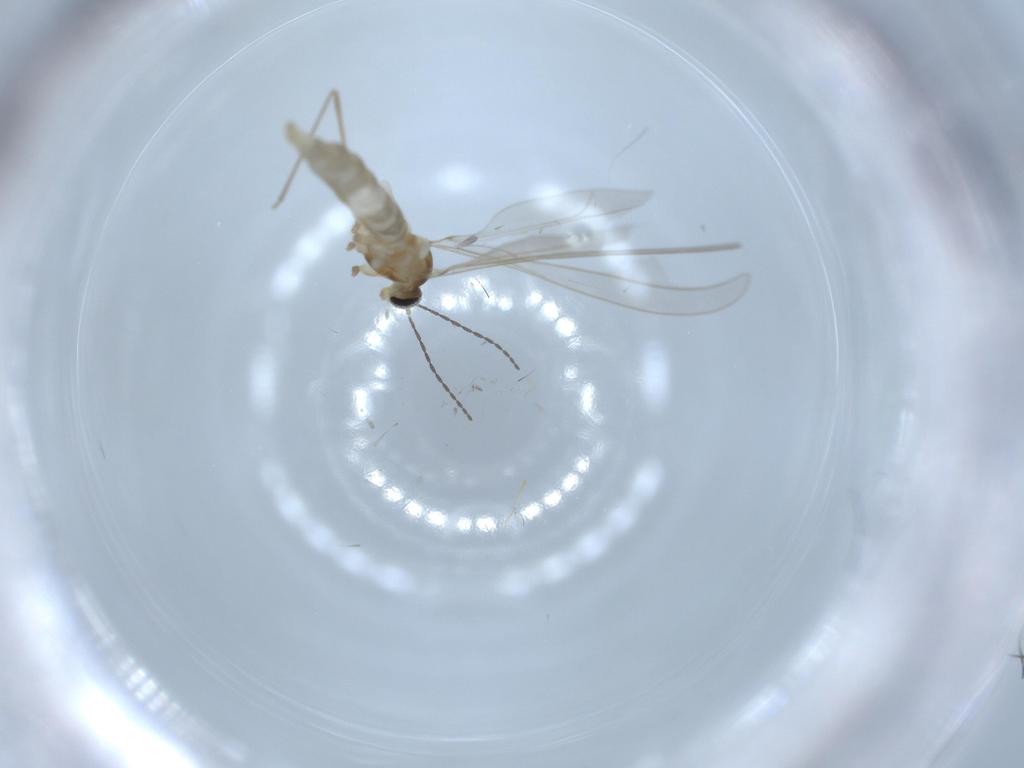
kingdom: Animalia
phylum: Arthropoda
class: Insecta
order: Diptera
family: Cecidomyiidae
